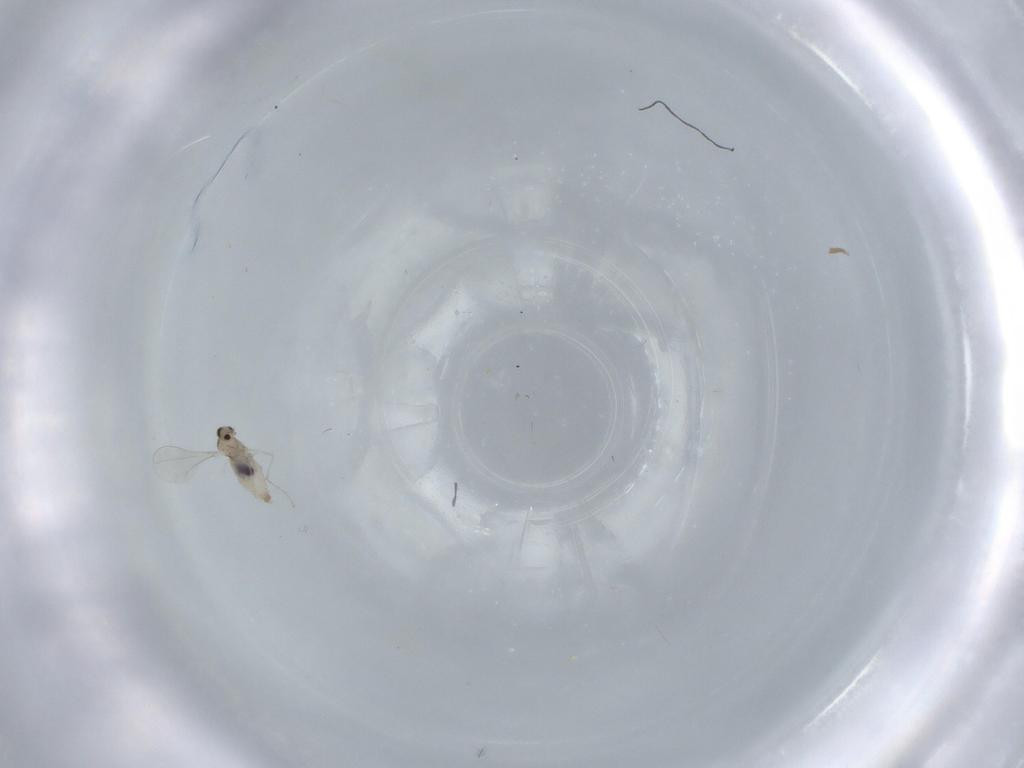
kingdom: Animalia
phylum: Arthropoda
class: Insecta
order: Diptera
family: Cecidomyiidae
